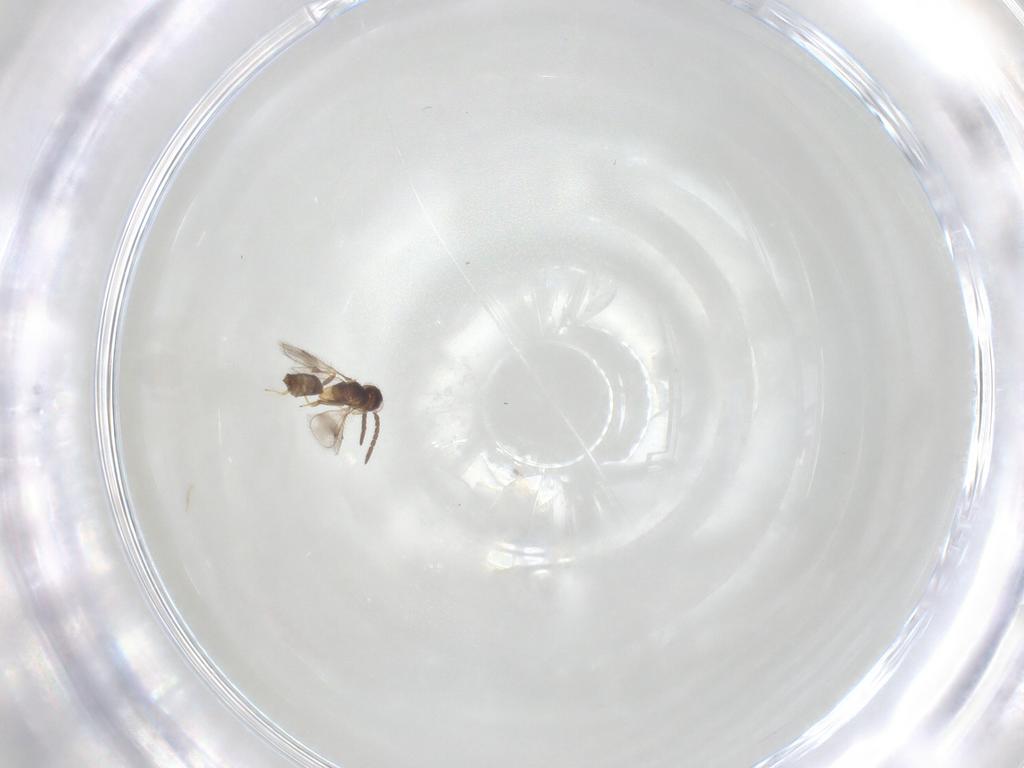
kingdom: Animalia
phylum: Arthropoda
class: Insecta
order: Hymenoptera
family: Pteromalidae
